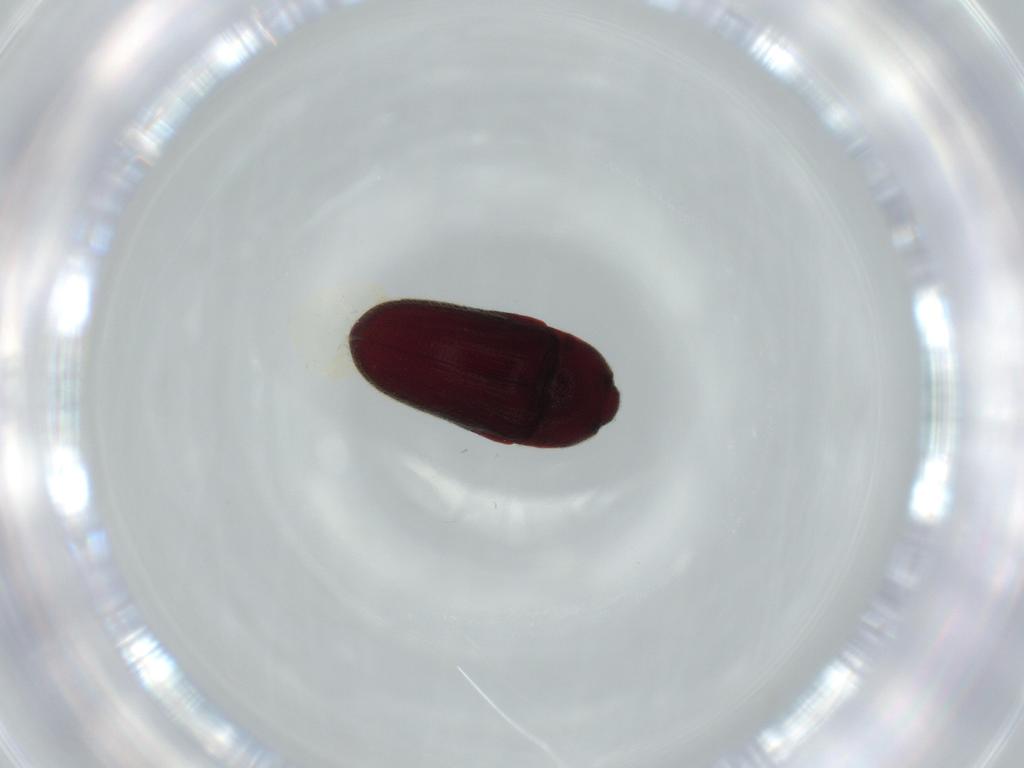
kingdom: Animalia
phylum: Arthropoda
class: Insecta
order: Coleoptera
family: Throscidae
